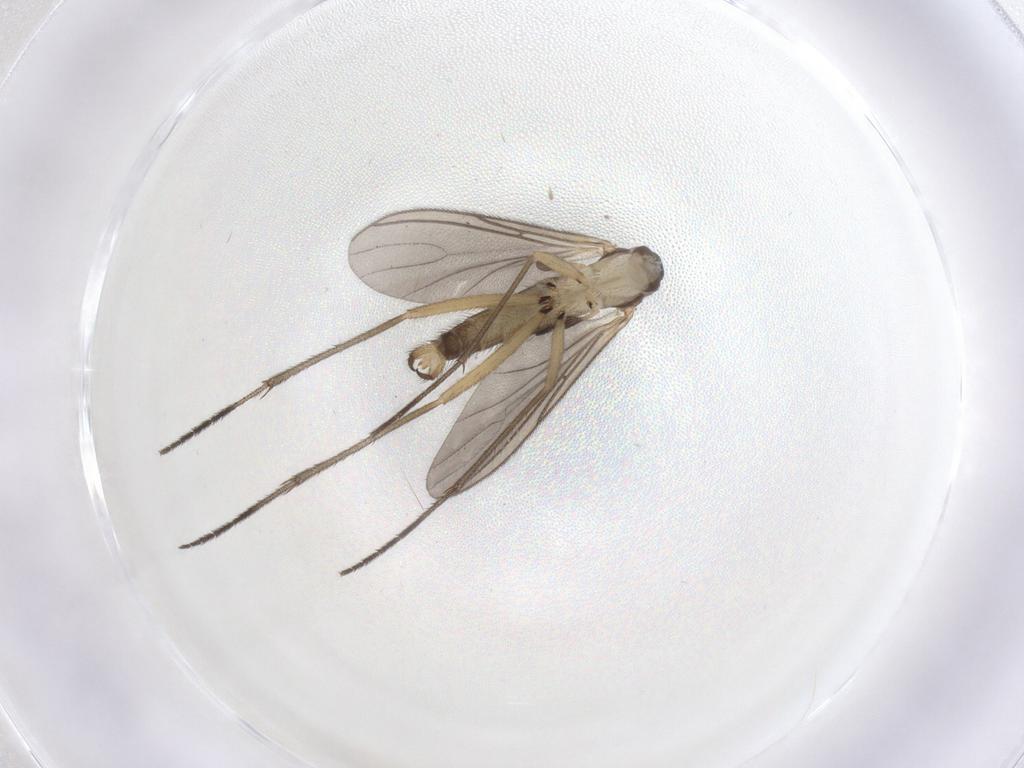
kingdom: Animalia
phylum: Arthropoda
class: Insecta
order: Diptera
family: Sciaridae
